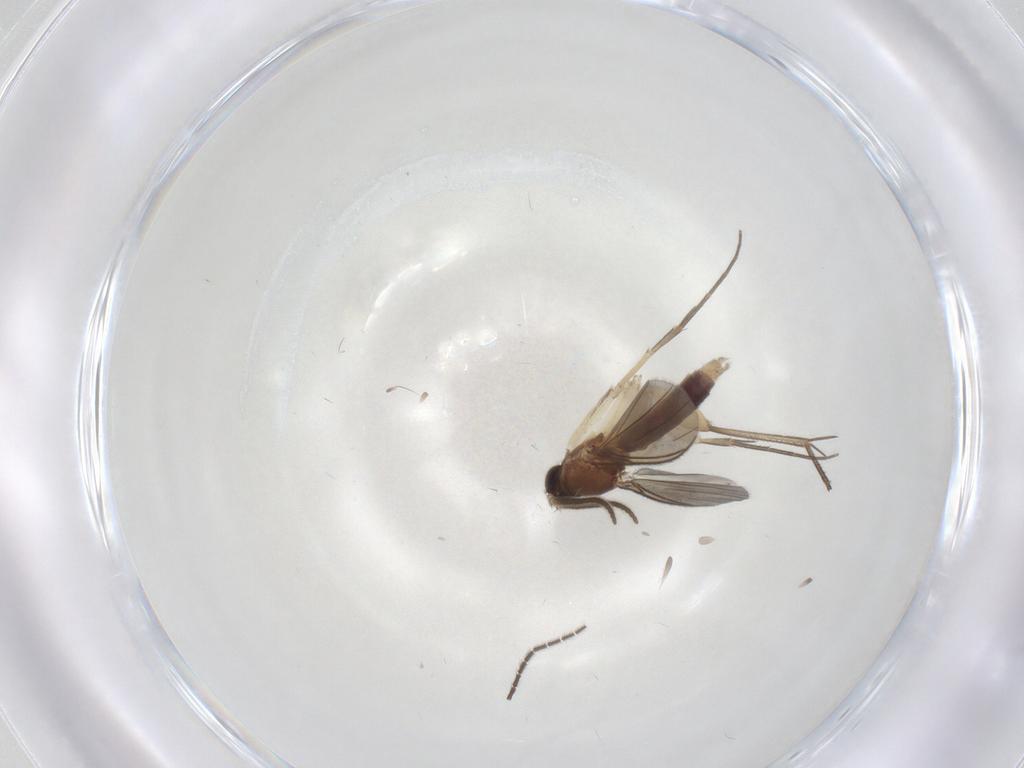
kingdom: Animalia
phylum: Arthropoda
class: Insecta
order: Diptera
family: Mycetophilidae
